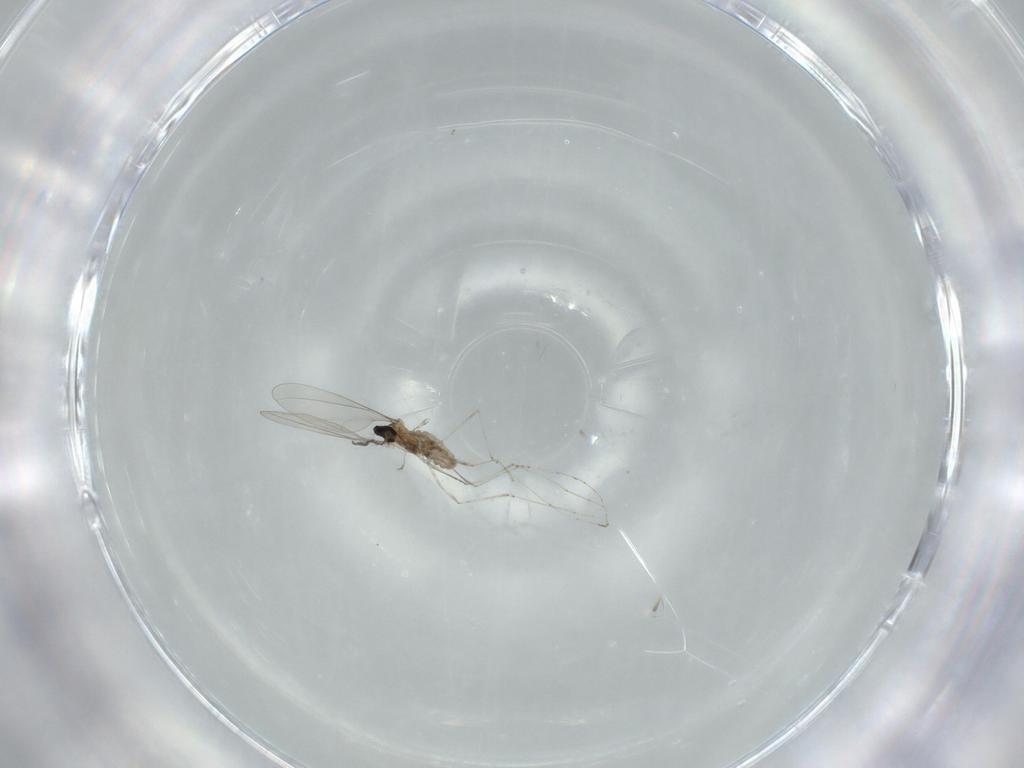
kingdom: Animalia
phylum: Arthropoda
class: Insecta
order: Diptera
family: Cecidomyiidae
